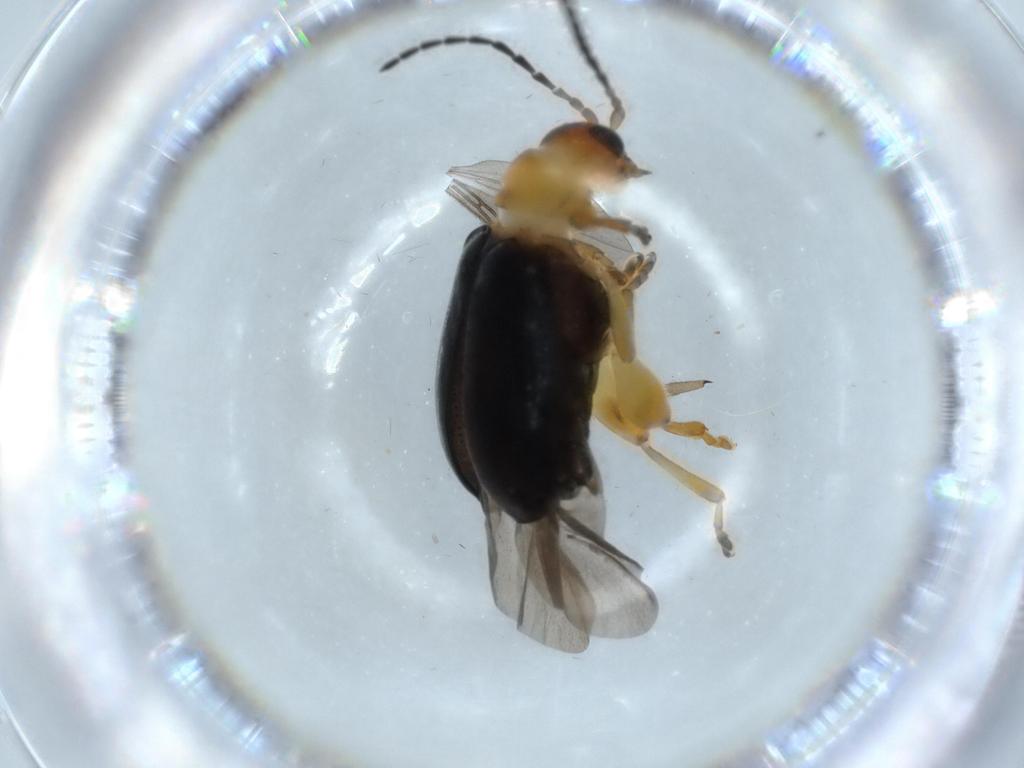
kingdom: Animalia
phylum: Arthropoda
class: Insecta
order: Coleoptera
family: Chrysomelidae
